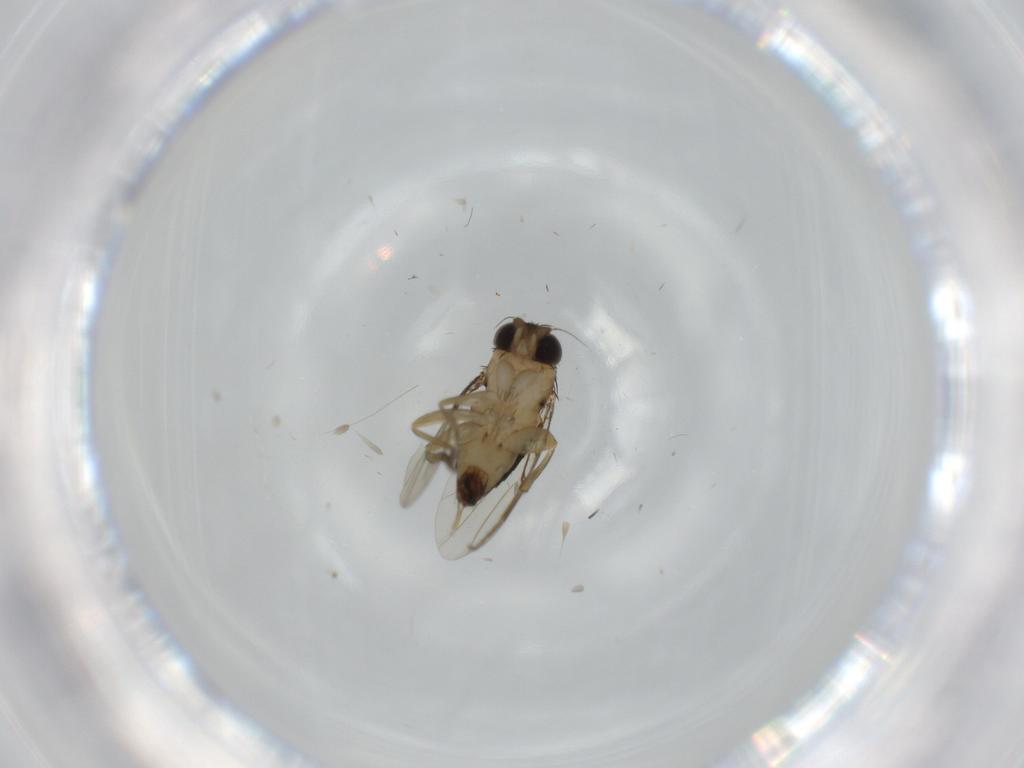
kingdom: Animalia
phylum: Arthropoda
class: Insecta
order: Diptera
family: Phoridae
